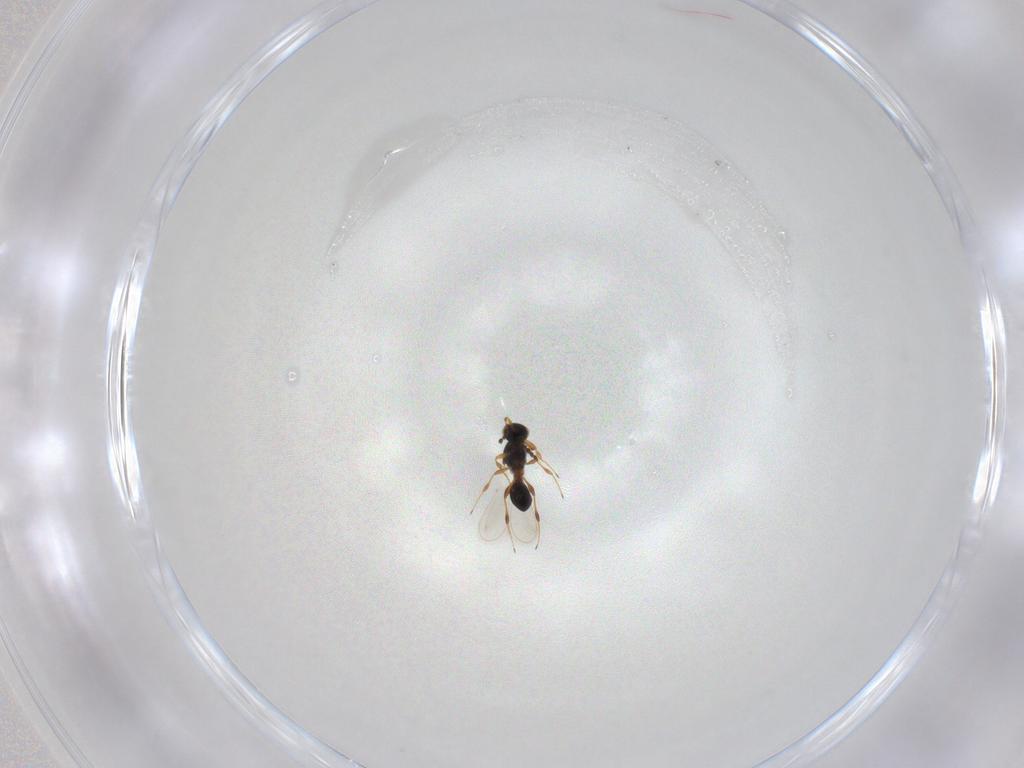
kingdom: Animalia
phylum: Arthropoda
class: Insecta
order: Hymenoptera
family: Platygastridae
